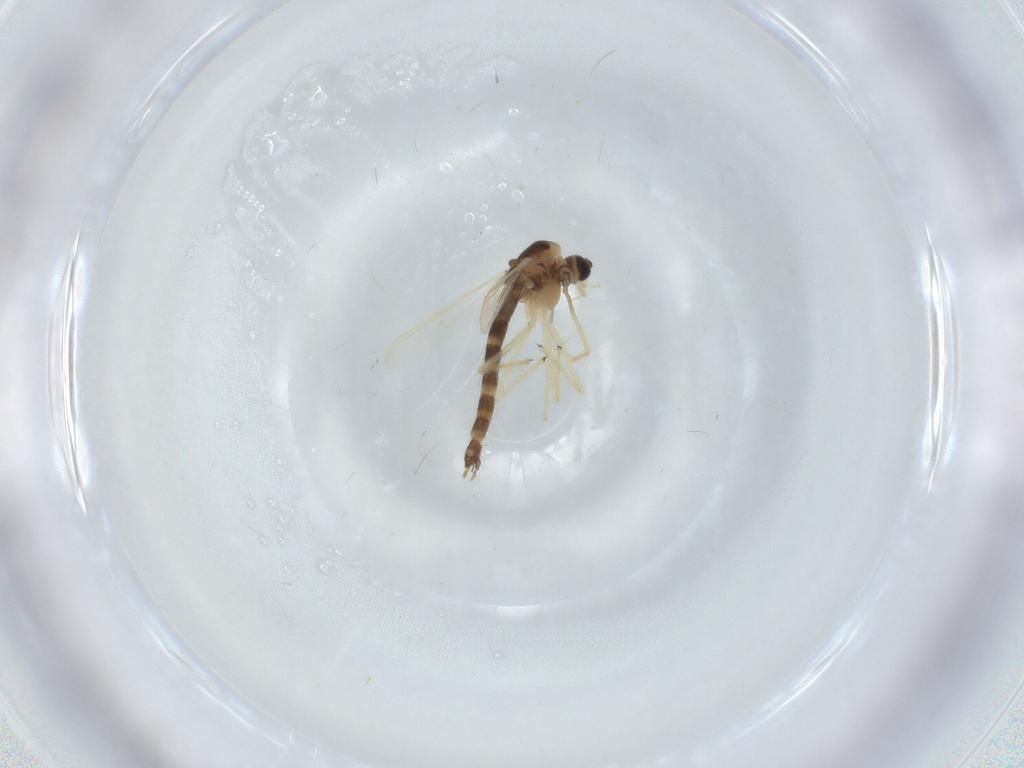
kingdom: Animalia
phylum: Arthropoda
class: Insecta
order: Diptera
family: Chironomidae
